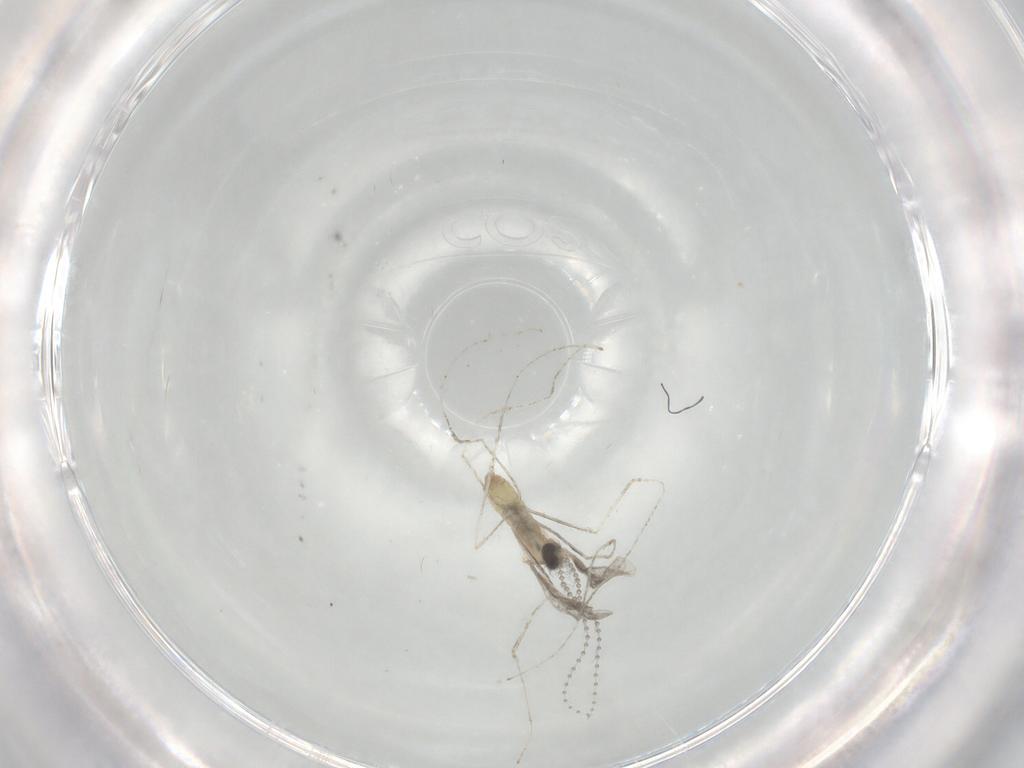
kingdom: Animalia
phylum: Arthropoda
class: Insecta
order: Diptera
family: Cecidomyiidae
